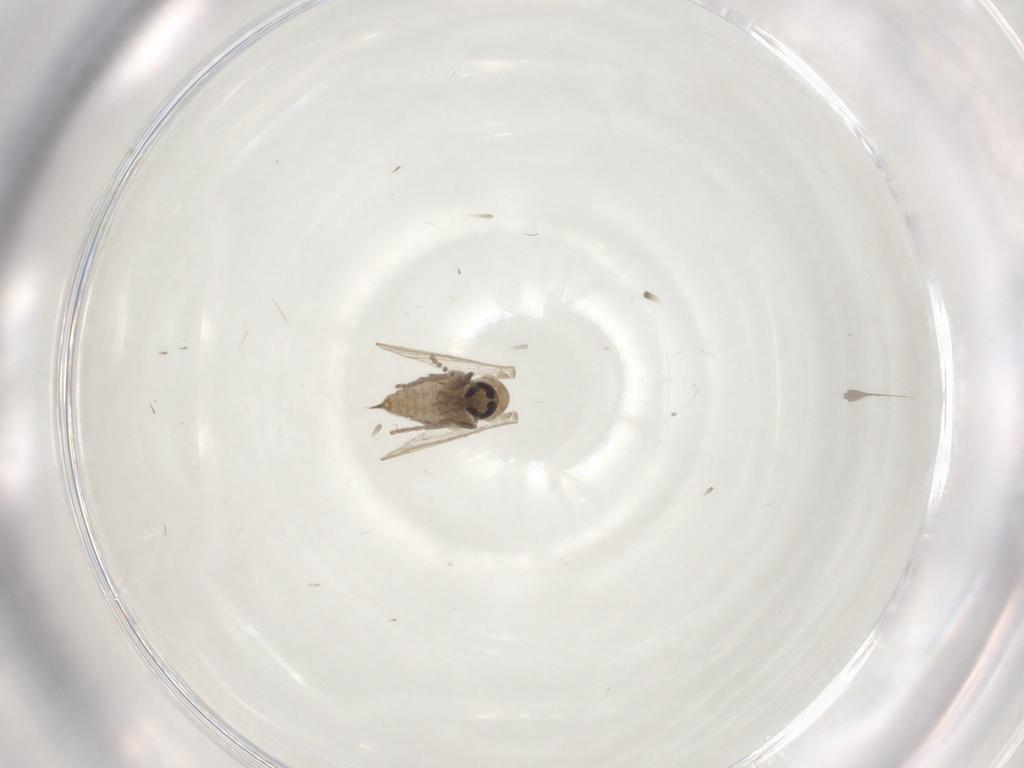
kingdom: Animalia
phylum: Arthropoda
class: Insecta
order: Diptera
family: Psychodidae
